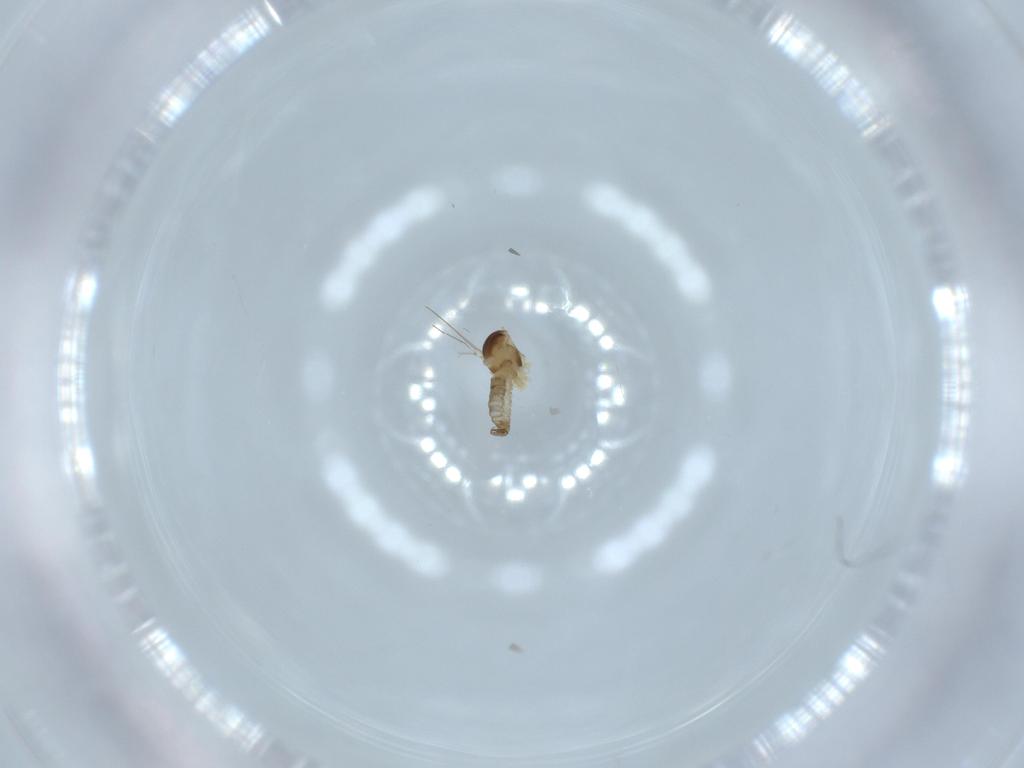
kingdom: Animalia
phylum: Arthropoda
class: Insecta
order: Diptera
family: Cecidomyiidae
